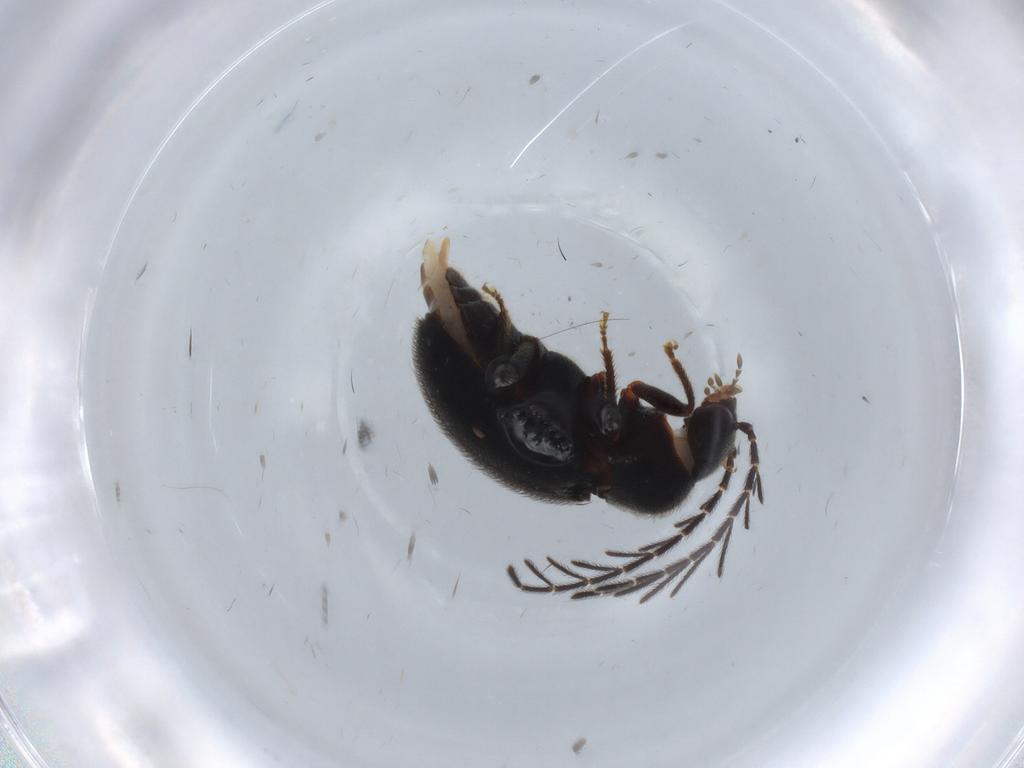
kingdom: Animalia
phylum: Arthropoda
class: Insecta
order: Coleoptera
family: Ptilodactylidae
